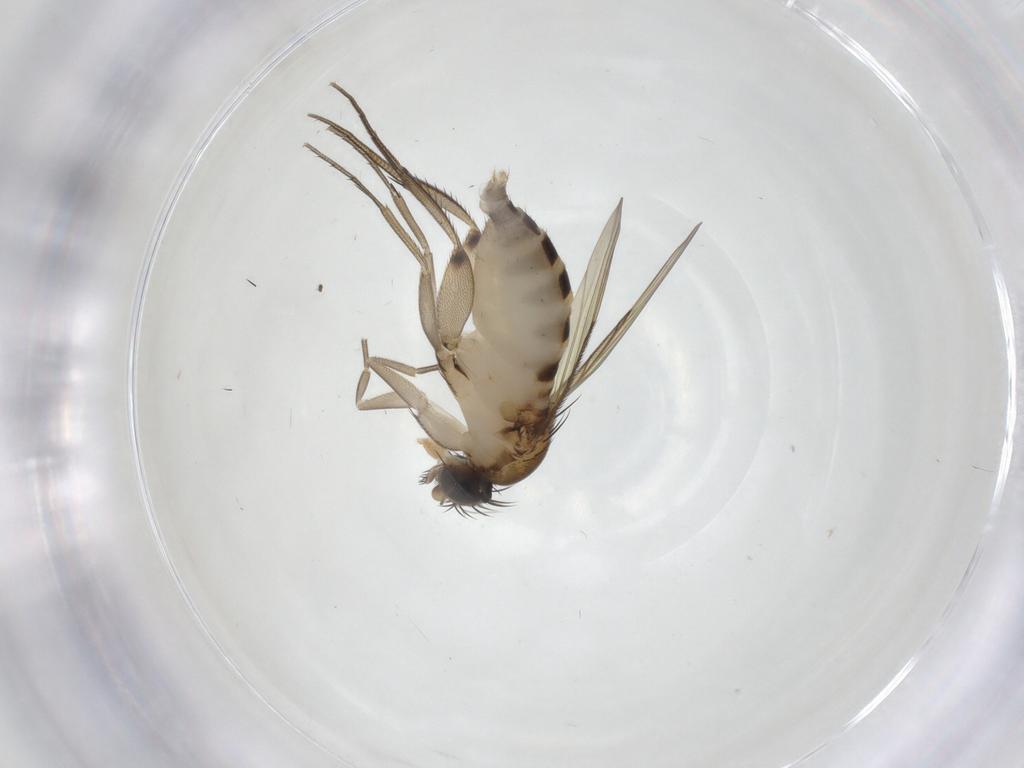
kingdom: Animalia
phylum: Arthropoda
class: Insecta
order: Diptera
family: Phoridae
